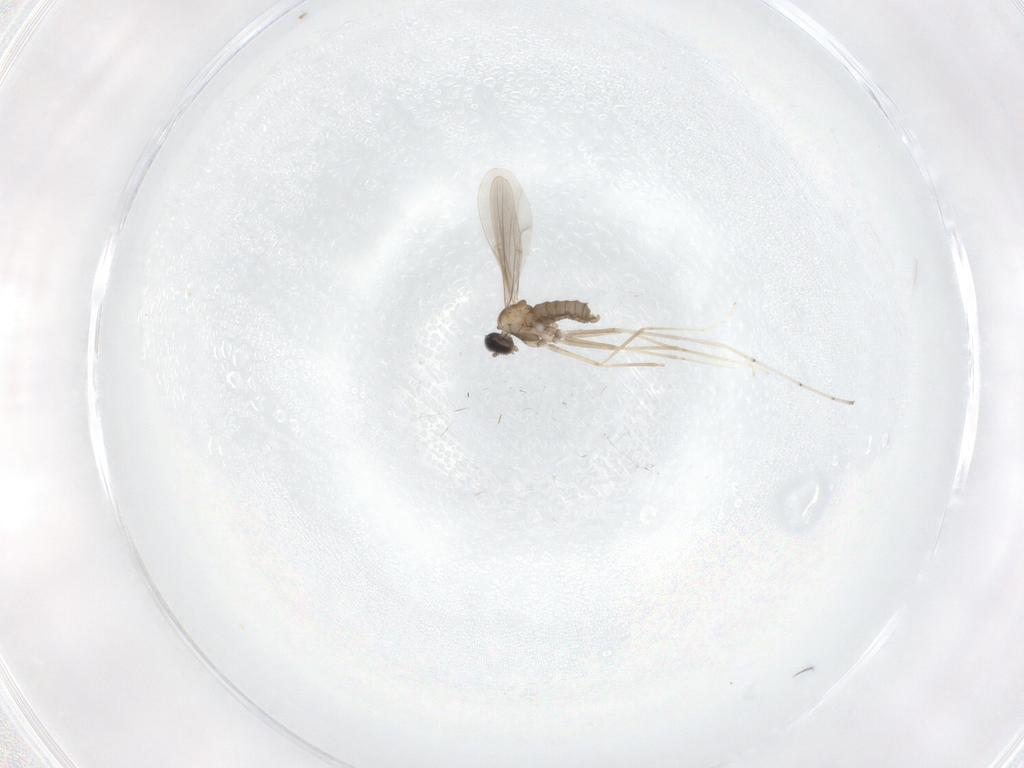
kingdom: Animalia
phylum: Arthropoda
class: Insecta
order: Diptera
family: Cecidomyiidae
